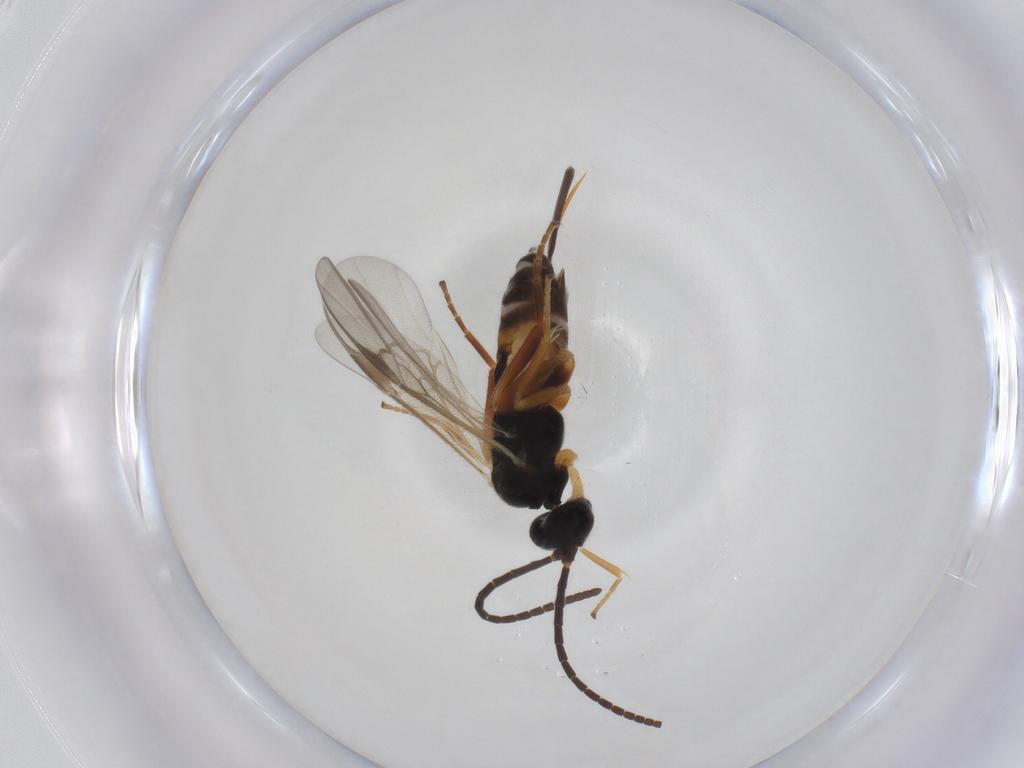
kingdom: Animalia
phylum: Arthropoda
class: Insecta
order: Hymenoptera
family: Braconidae
